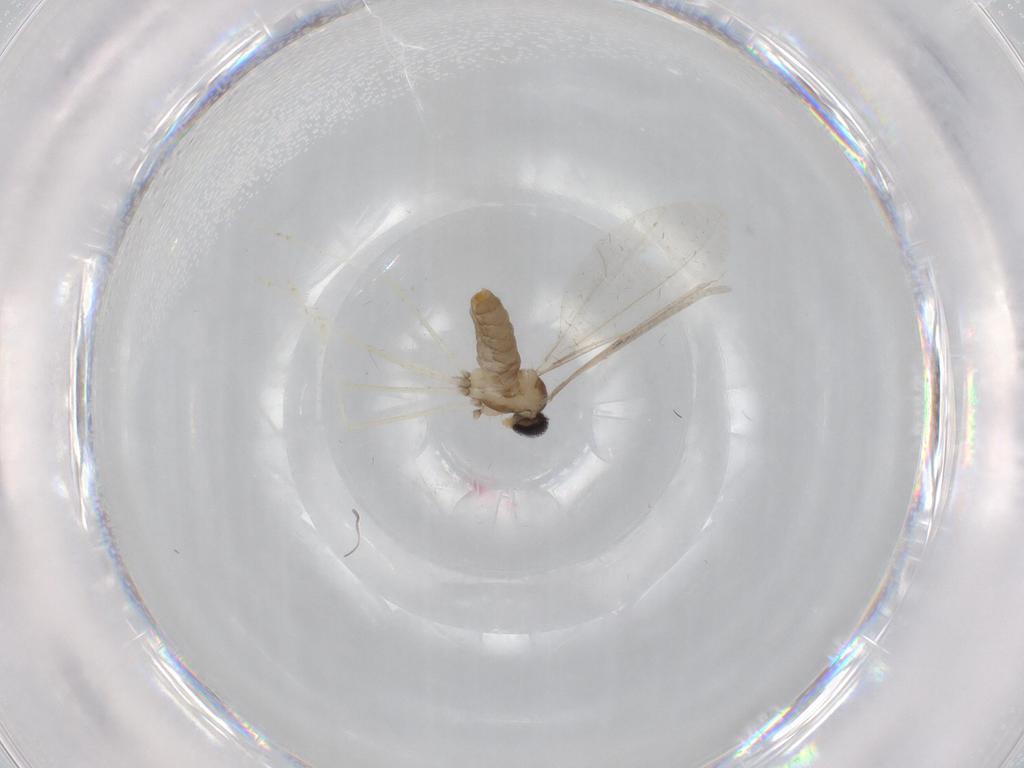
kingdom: Animalia
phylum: Arthropoda
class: Insecta
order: Diptera
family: Cecidomyiidae
